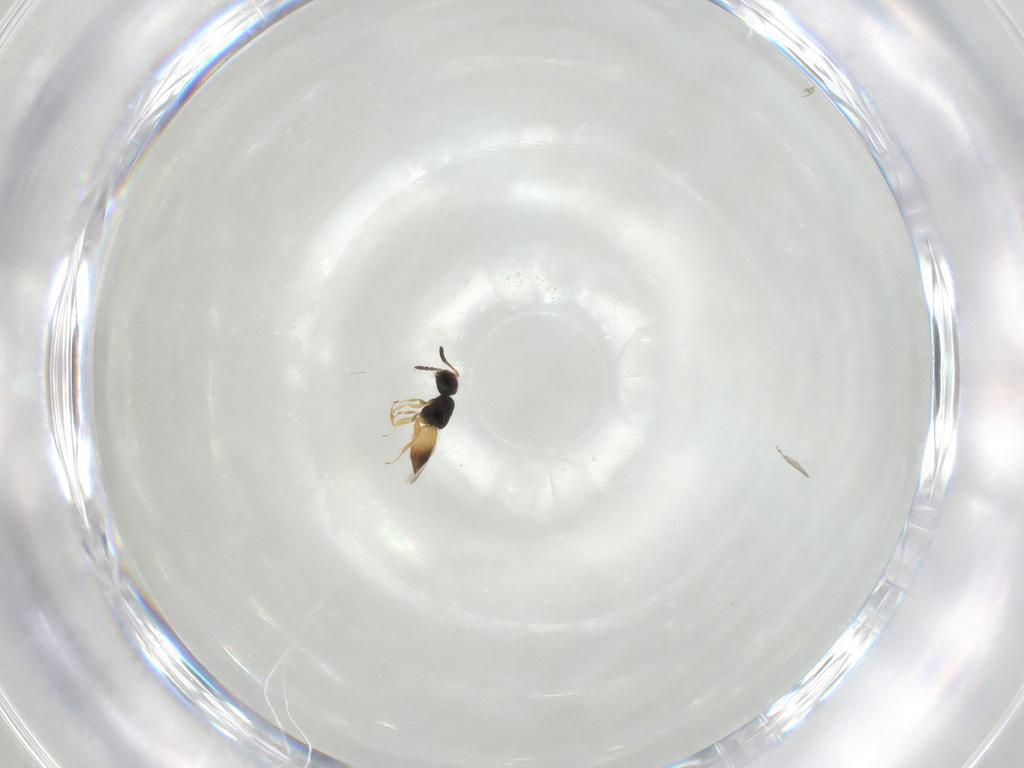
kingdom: Animalia
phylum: Arthropoda
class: Insecta
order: Hymenoptera
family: Ceraphronidae
